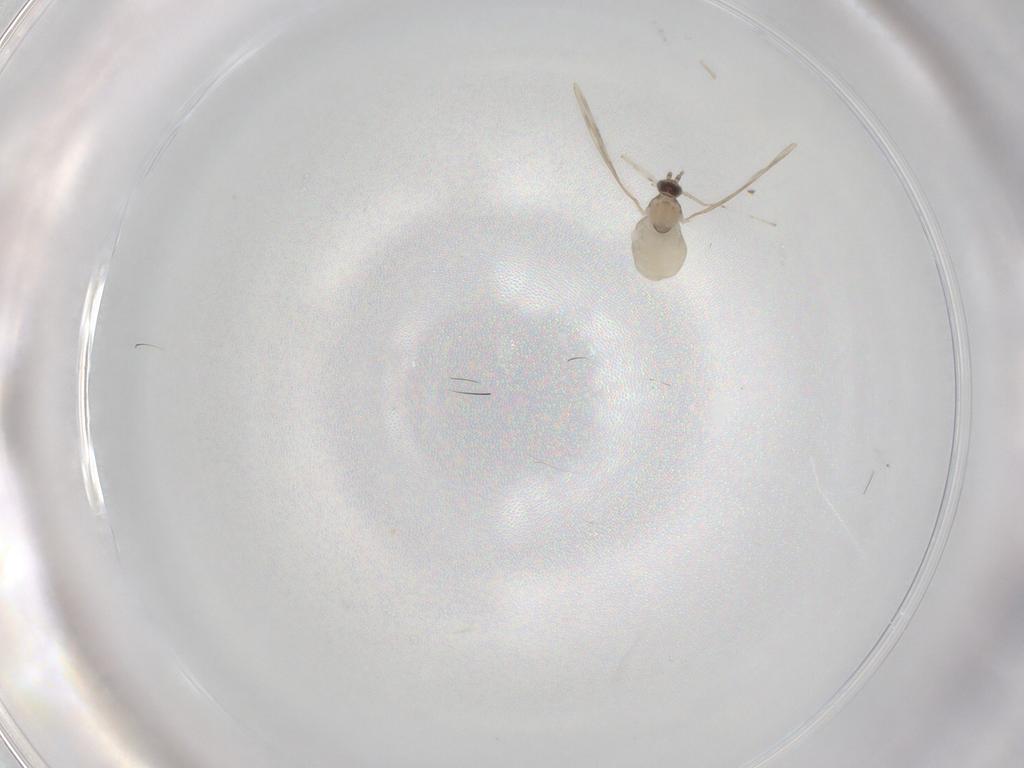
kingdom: Animalia
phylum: Arthropoda
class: Insecta
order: Diptera
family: Cecidomyiidae
